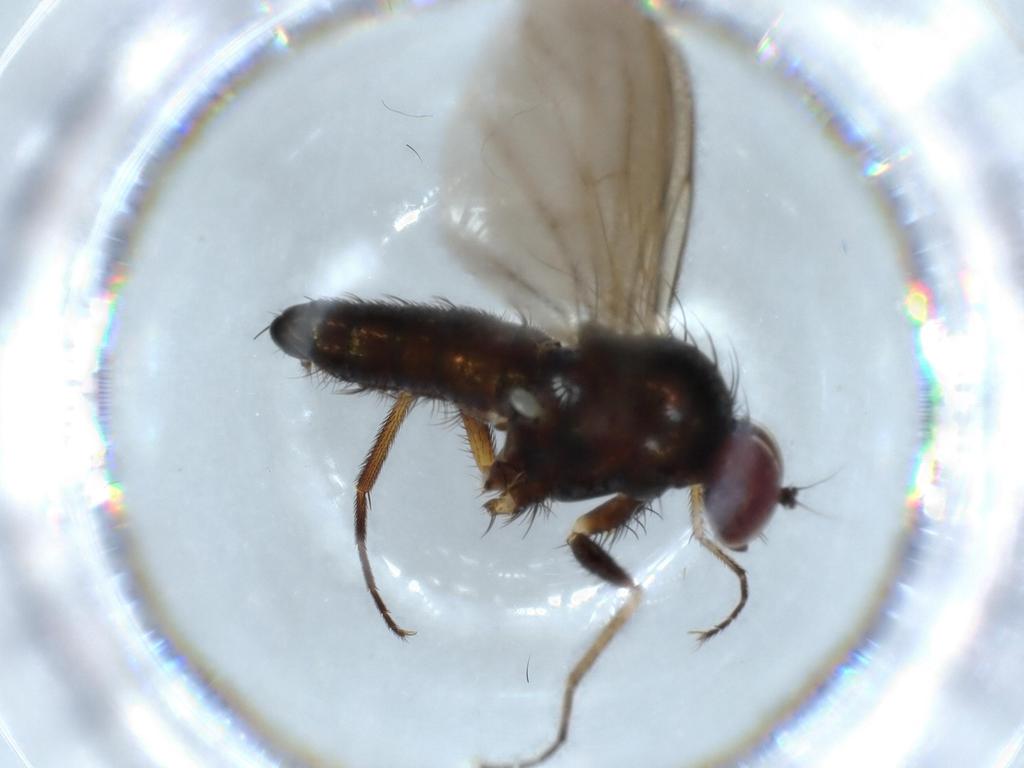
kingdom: Animalia
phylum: Arthropoda
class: Insecta
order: Diptera
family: Sciaridae
